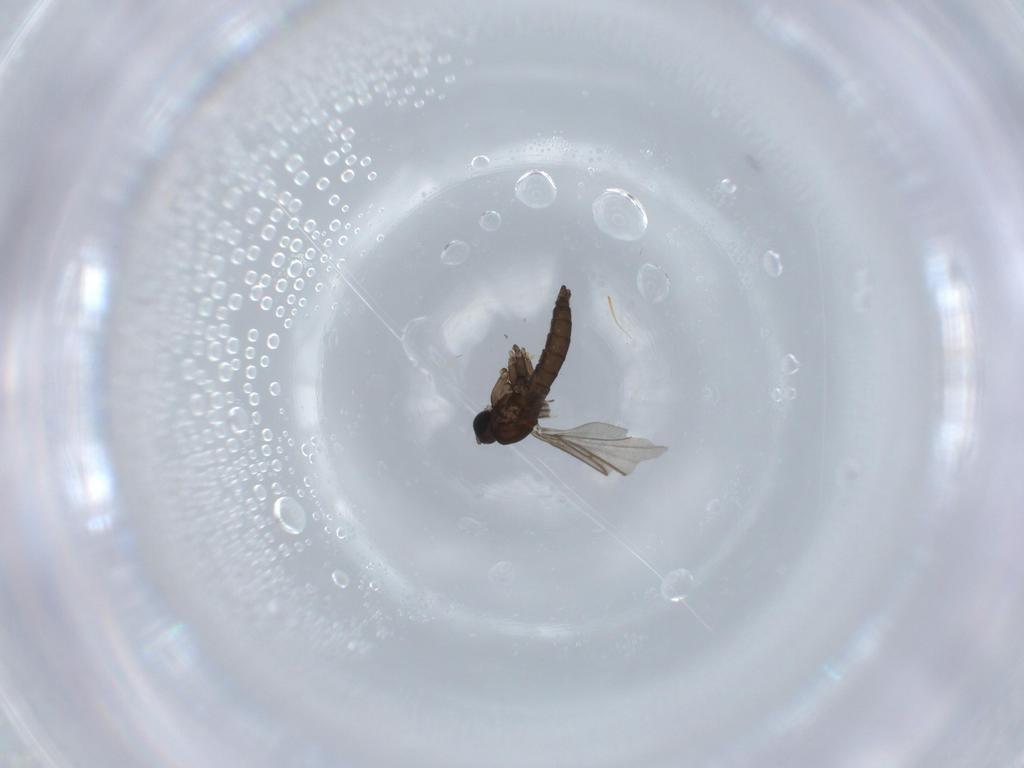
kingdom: Animalia
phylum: Arthropoda
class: Insecta
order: Diptera
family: Sciaridae
